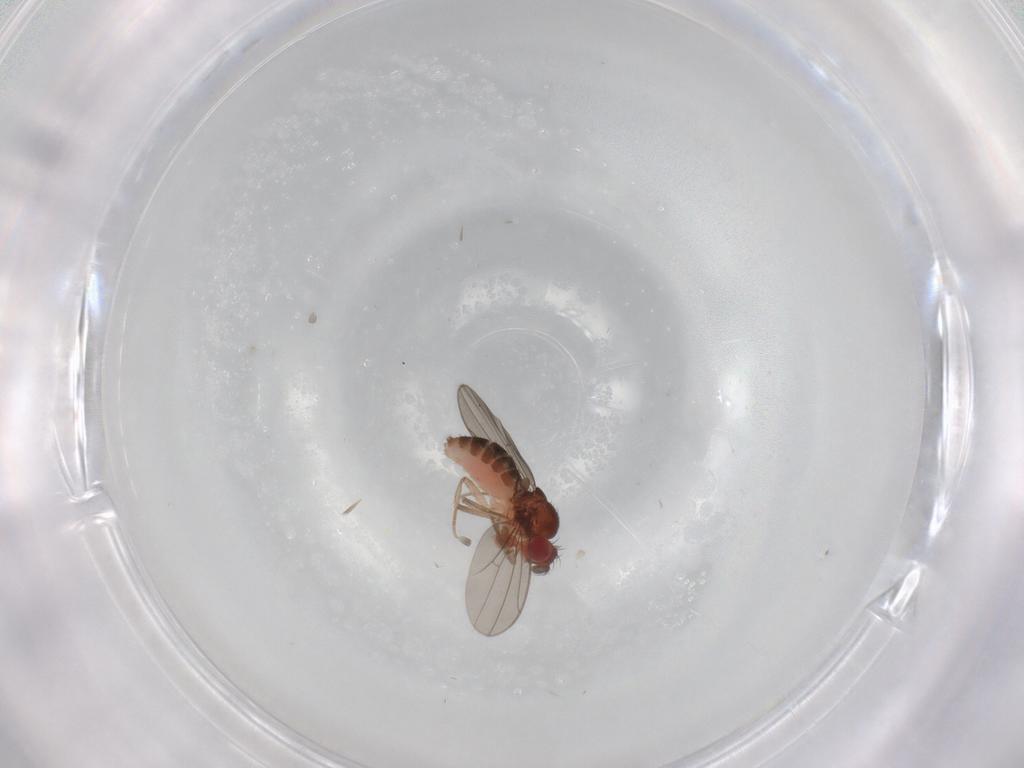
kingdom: Animalia
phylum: Arthropoda
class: Insecta
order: Diptera
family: Drosophilidae
